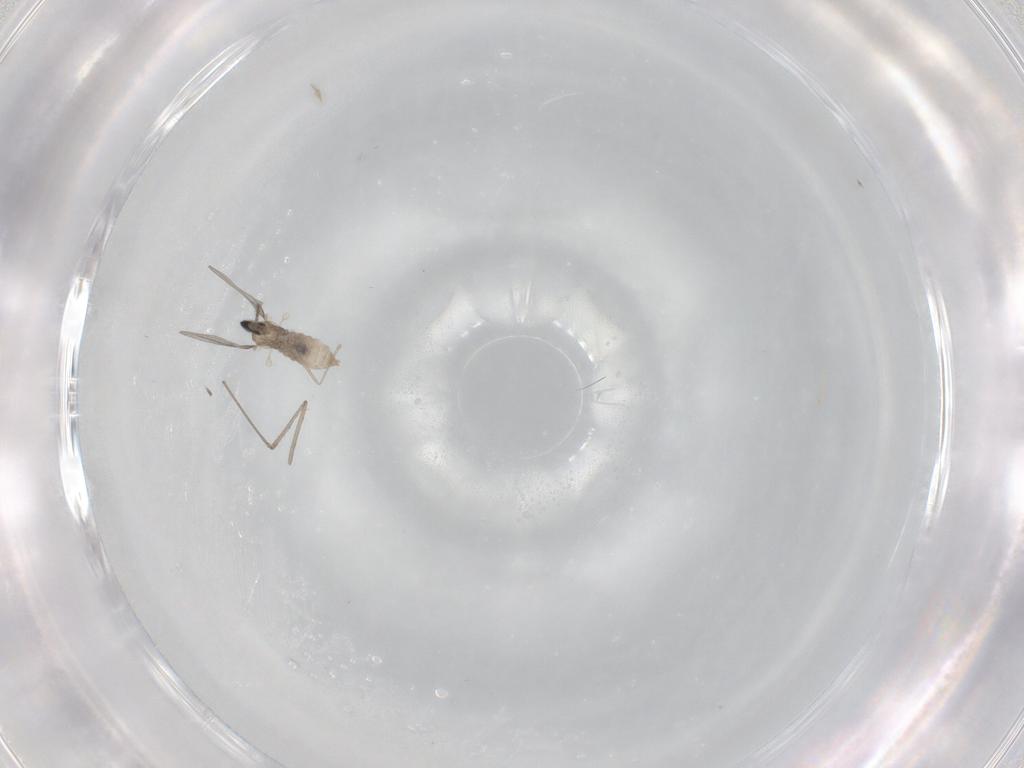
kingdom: Animalia
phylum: Arthropoda
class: Insecta
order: Diptera
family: Cecidomyiidae
